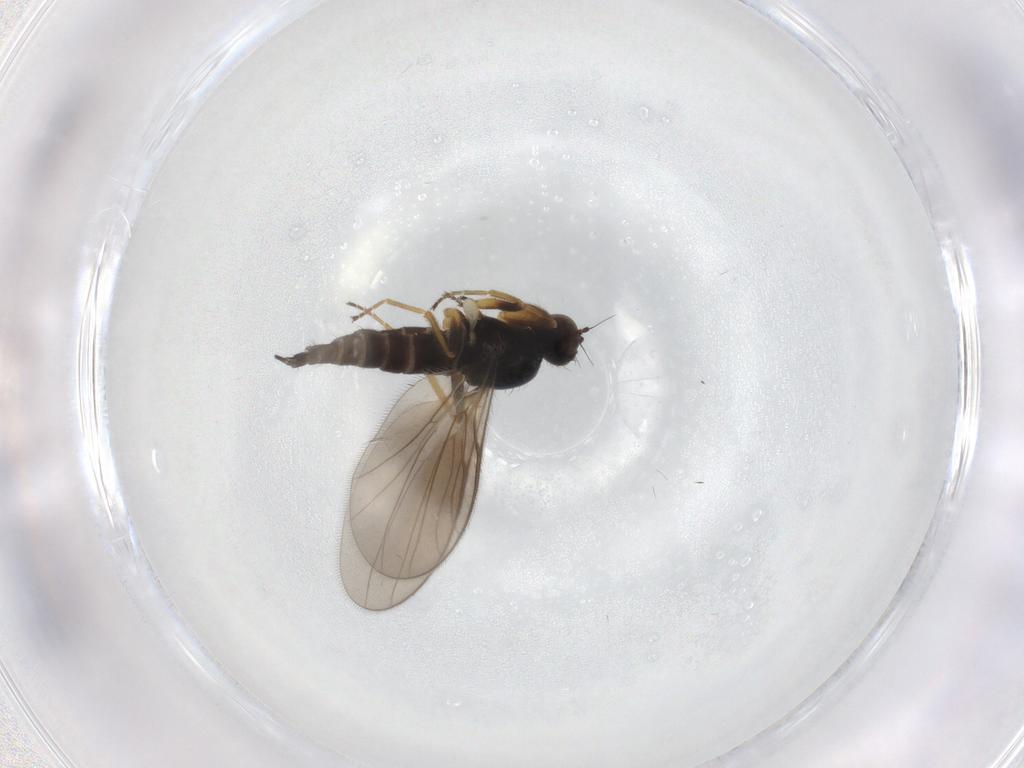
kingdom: Animalia
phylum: Arthropoda
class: Insecta
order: Diptera
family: Hybotidae
